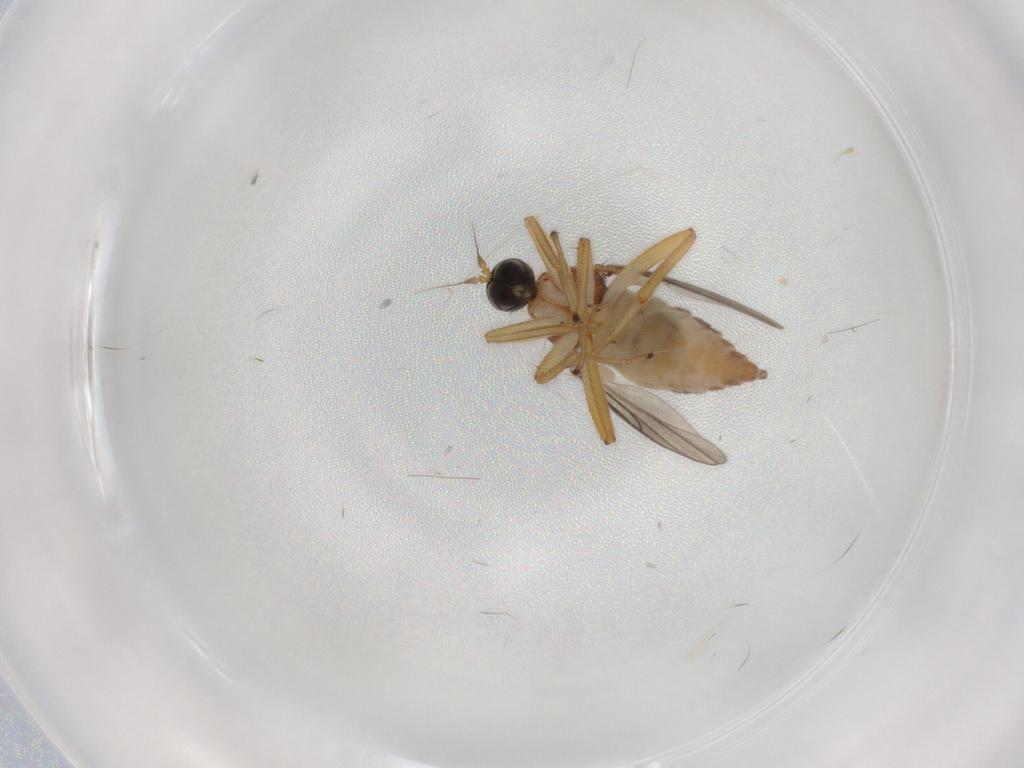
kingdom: Animalia
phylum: Arthropoda
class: Insecta
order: Diptera
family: Hybotidae
